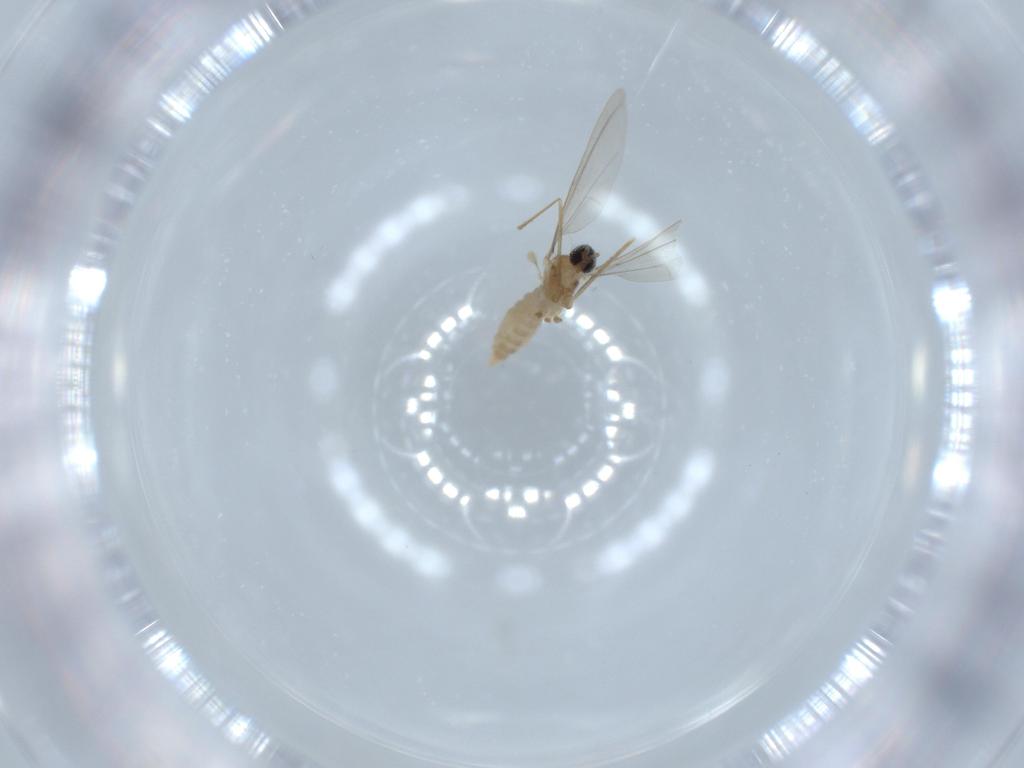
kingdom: Animalia
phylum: Arthropoda
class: Insecta
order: Diptera
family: Cecidomyiidae
